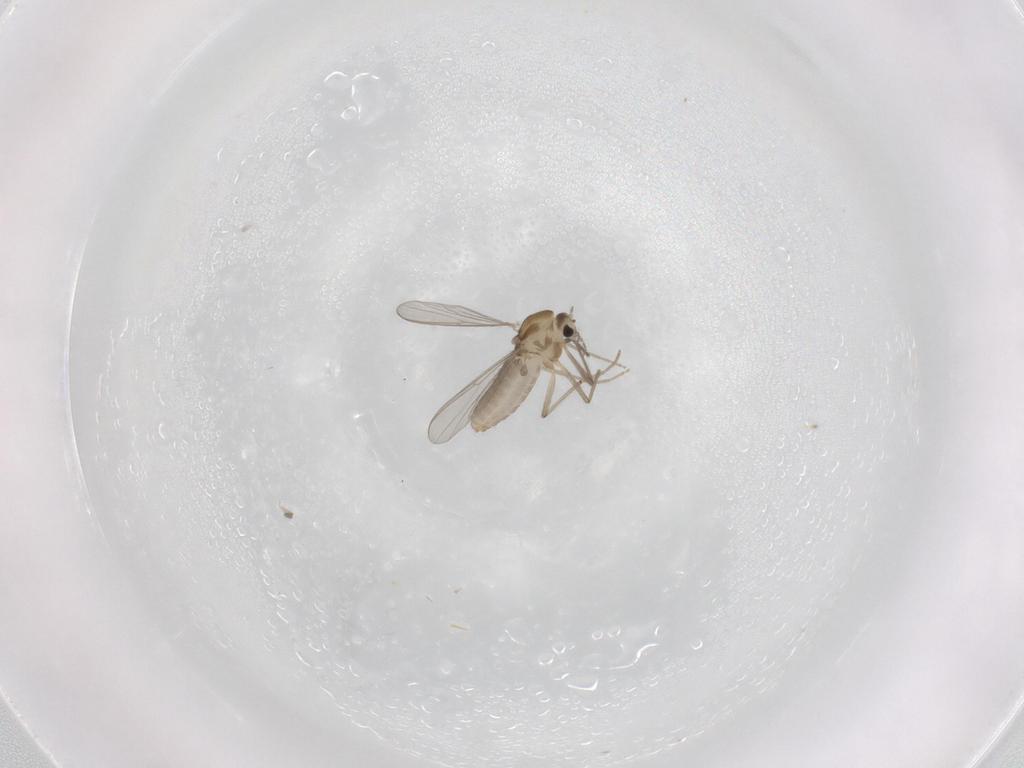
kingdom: Animalia
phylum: Arthropoda
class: Insecta
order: Diptera
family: Chironomidae
